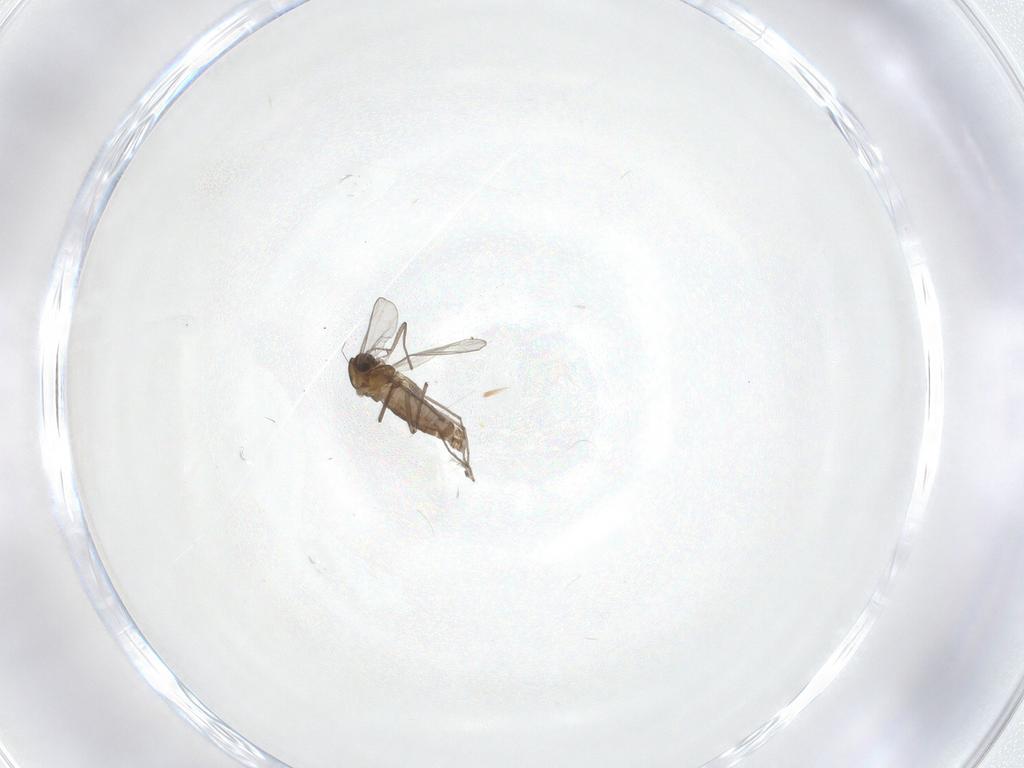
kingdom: Animalia
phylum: Arthropoda
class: Insecta
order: Diptera
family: Chironomidae
